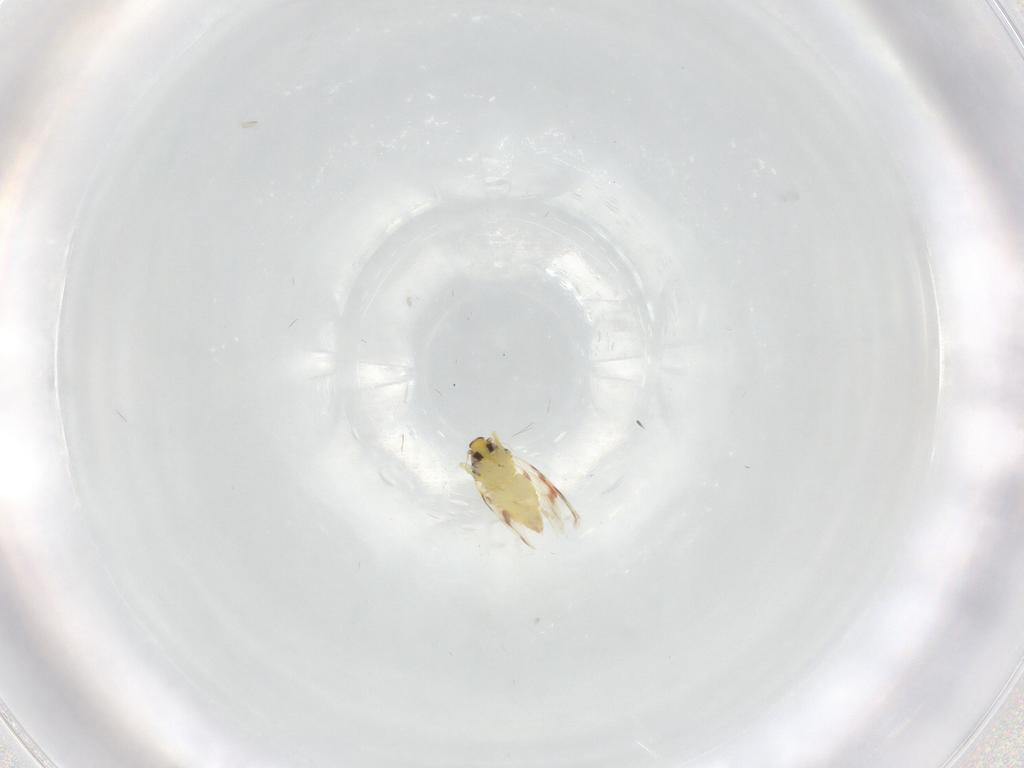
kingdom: Animalia
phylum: Arthropoda
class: Insecta
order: Hemiptera
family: Aleyrodidae
